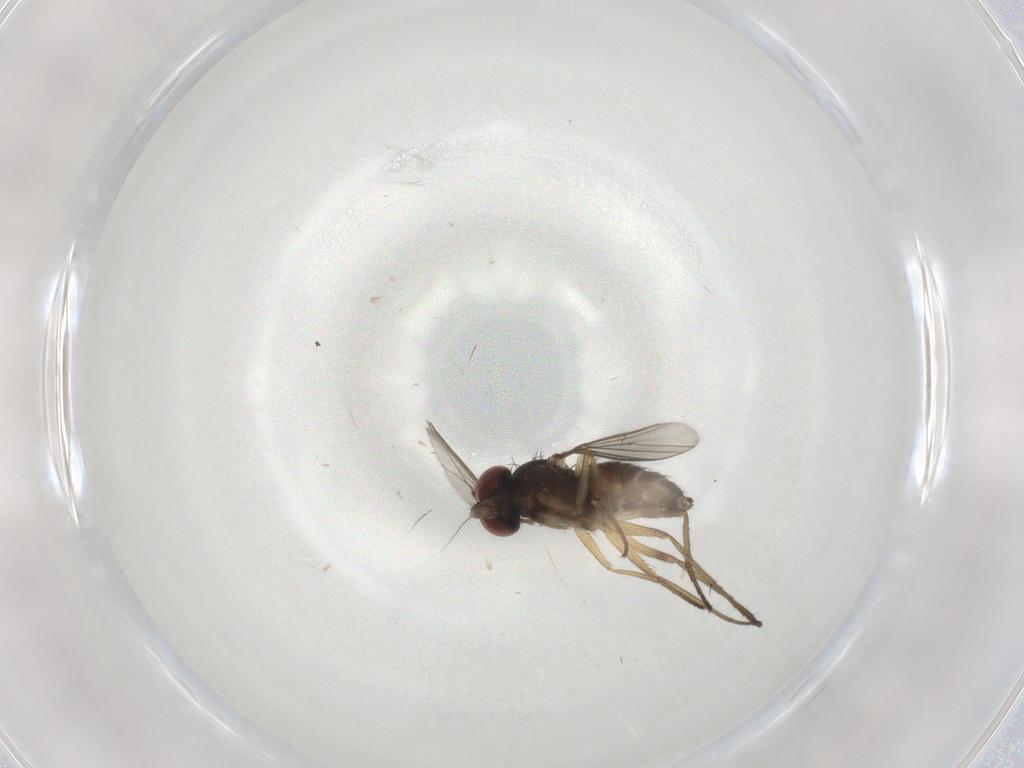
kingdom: Animalia
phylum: Arthropoda
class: Insecta
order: Diptera
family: Dolichopodidae
